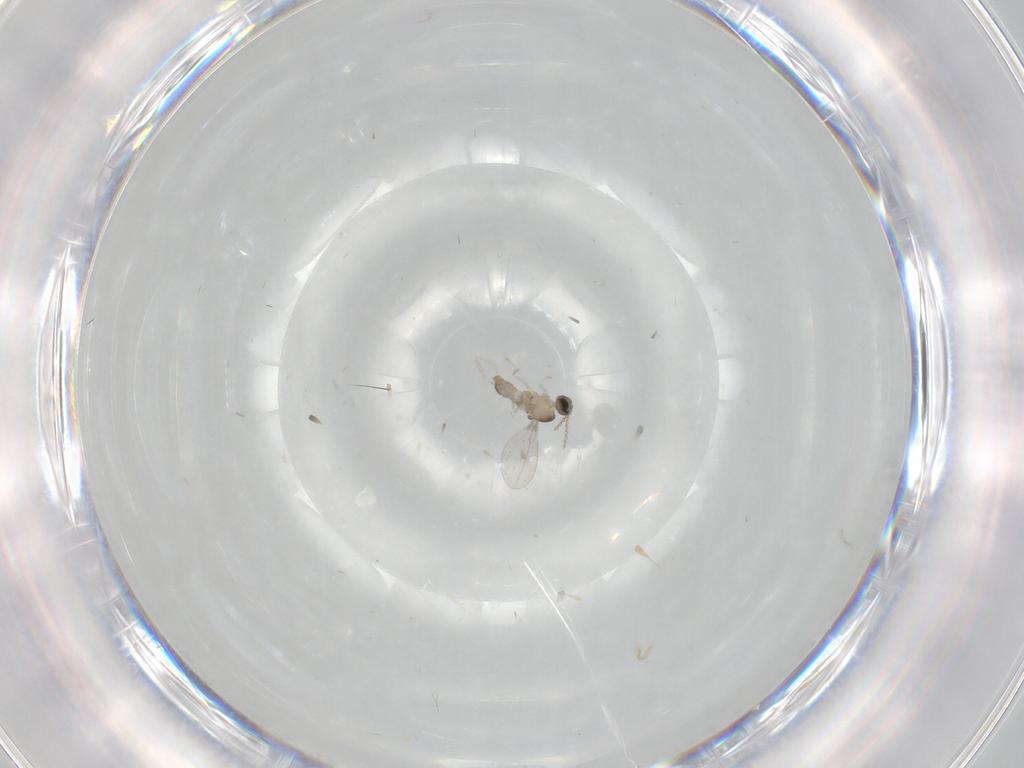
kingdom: Animalia
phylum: Arthropoda
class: Insecta
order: Diptera
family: Cecidomyiidae
